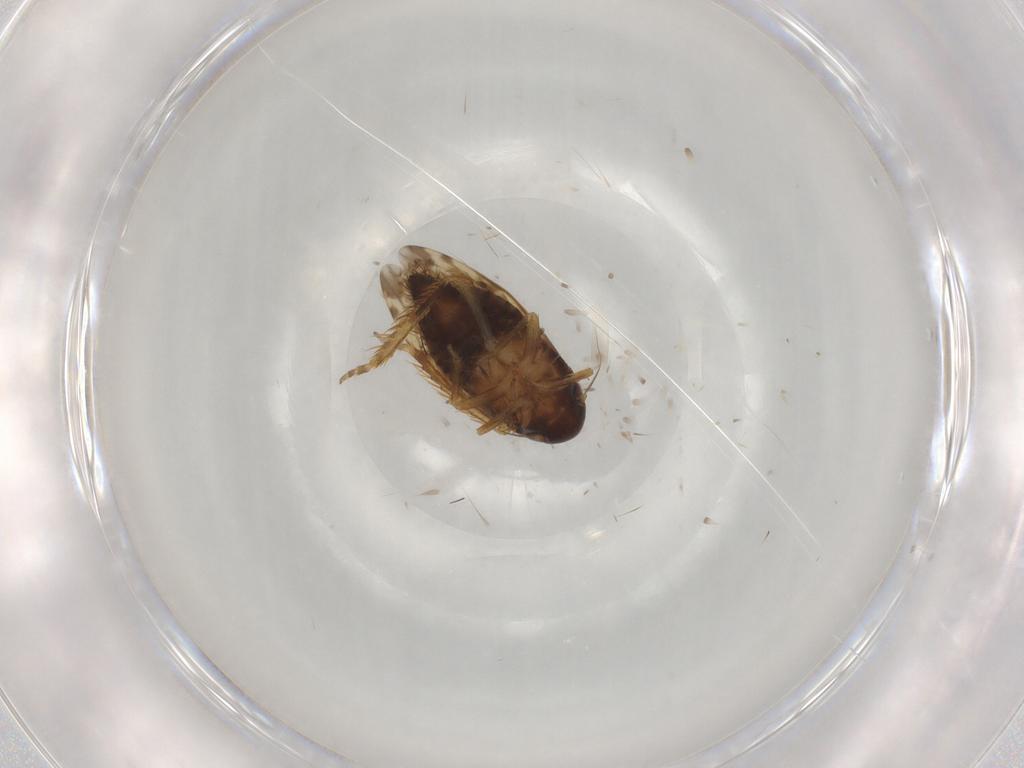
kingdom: Animalia
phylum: Arthropoda
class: Insecta
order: Hemiptera
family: Cicadellidae
